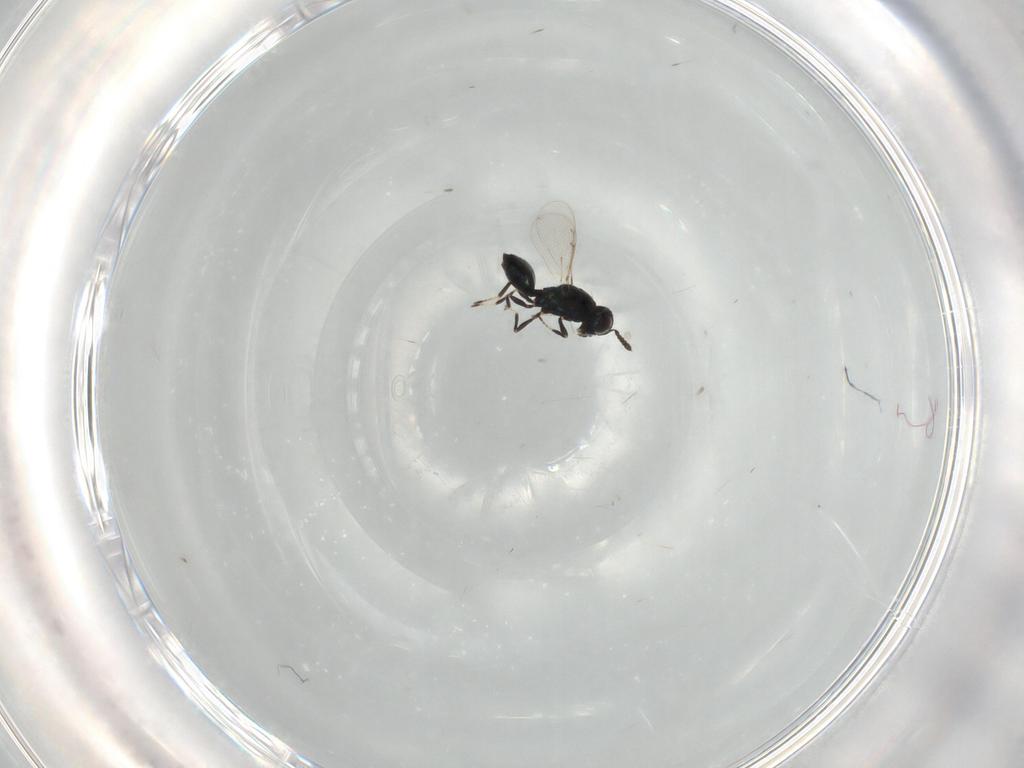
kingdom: Animalia
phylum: Arthropoda
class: Insecta
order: Hymenoptera
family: Eulophidae
